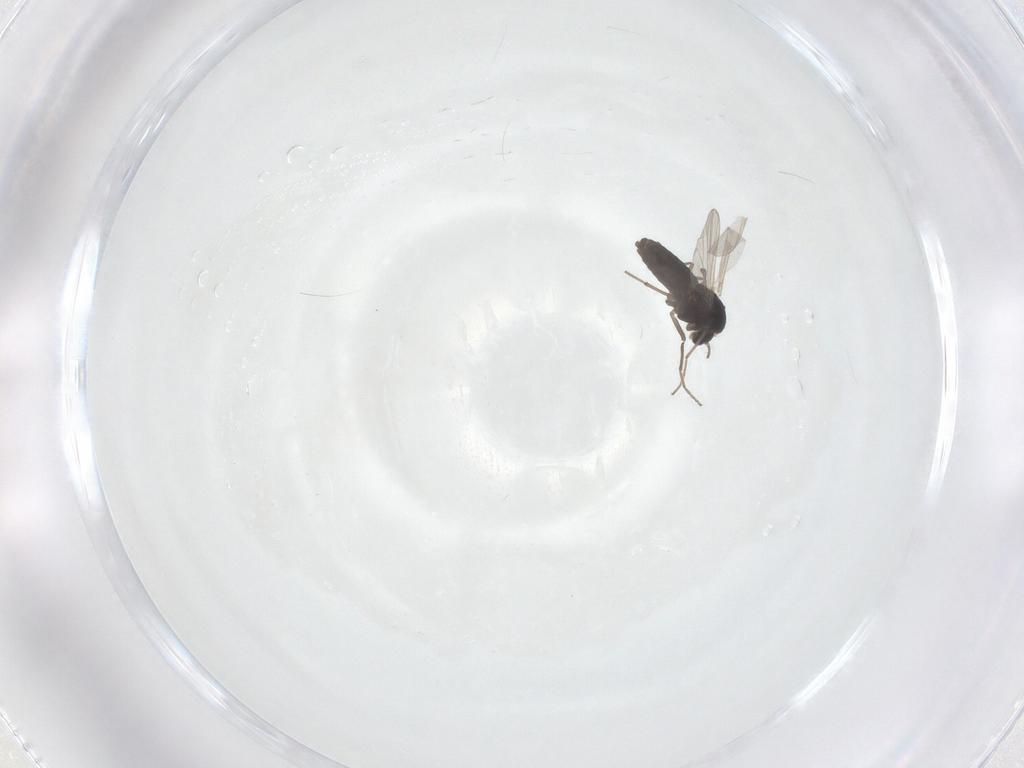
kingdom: Animalia
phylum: Arthropoda
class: Insecta
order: Diptera
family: Chironomidae
